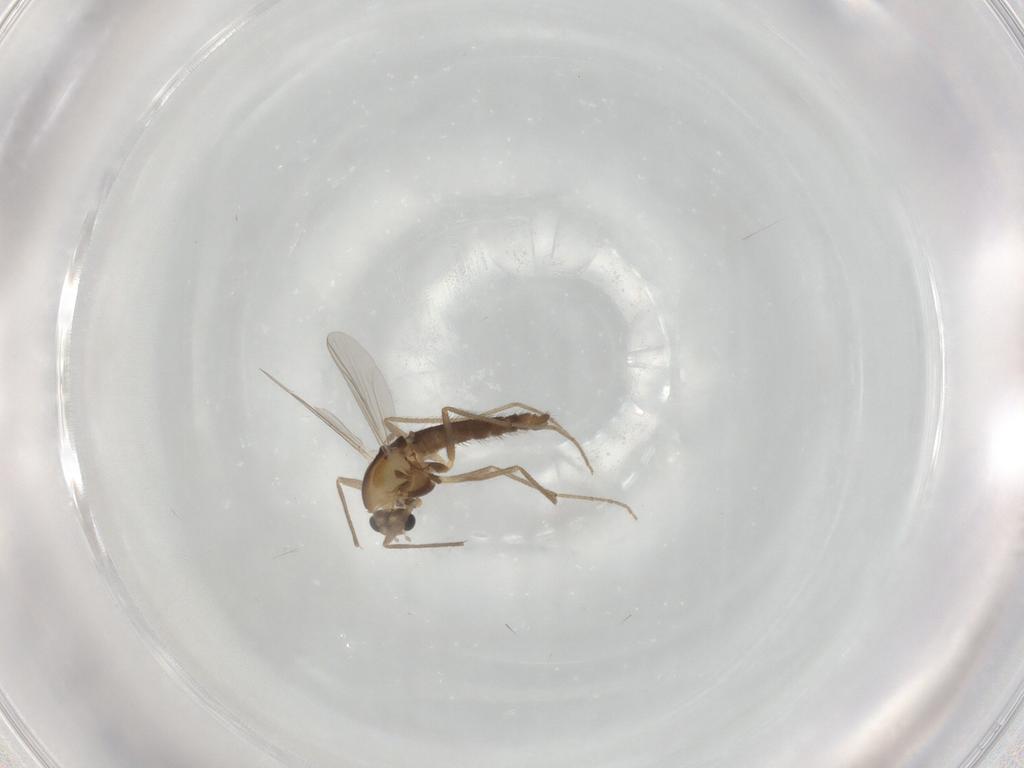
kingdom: Animalia
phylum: Arthropoda
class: Insecta
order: Diptera
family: Chironomidae
